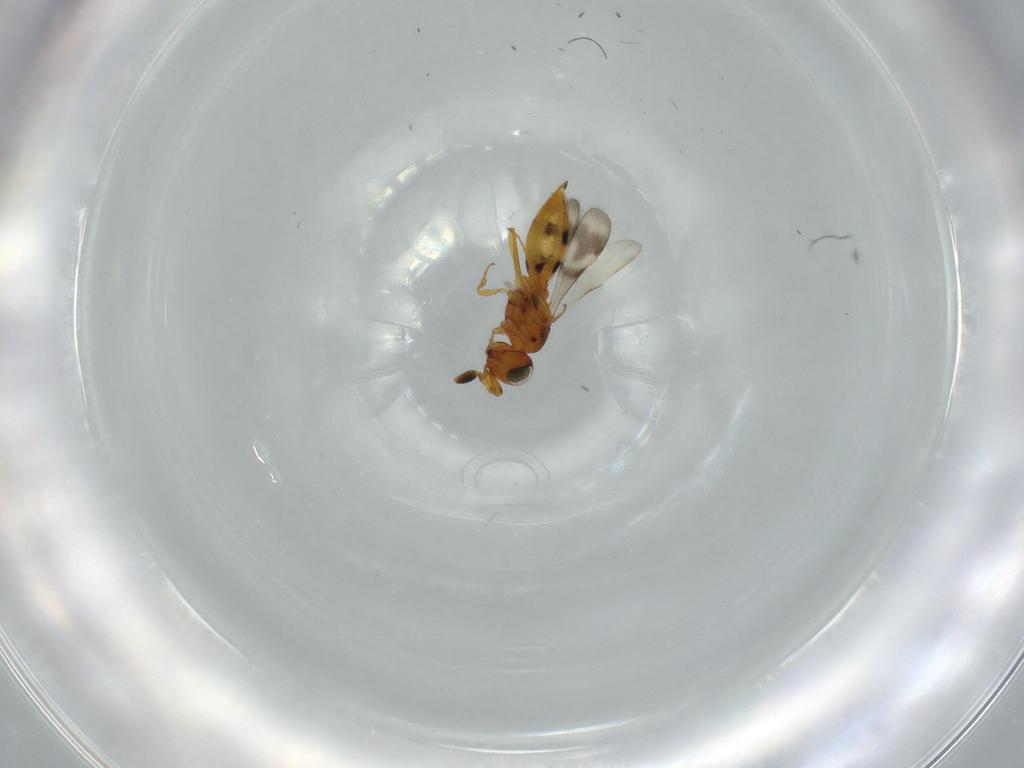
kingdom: Animalia
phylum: Arthropoda
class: Insecta
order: Hymenoptera
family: Scelionidae
